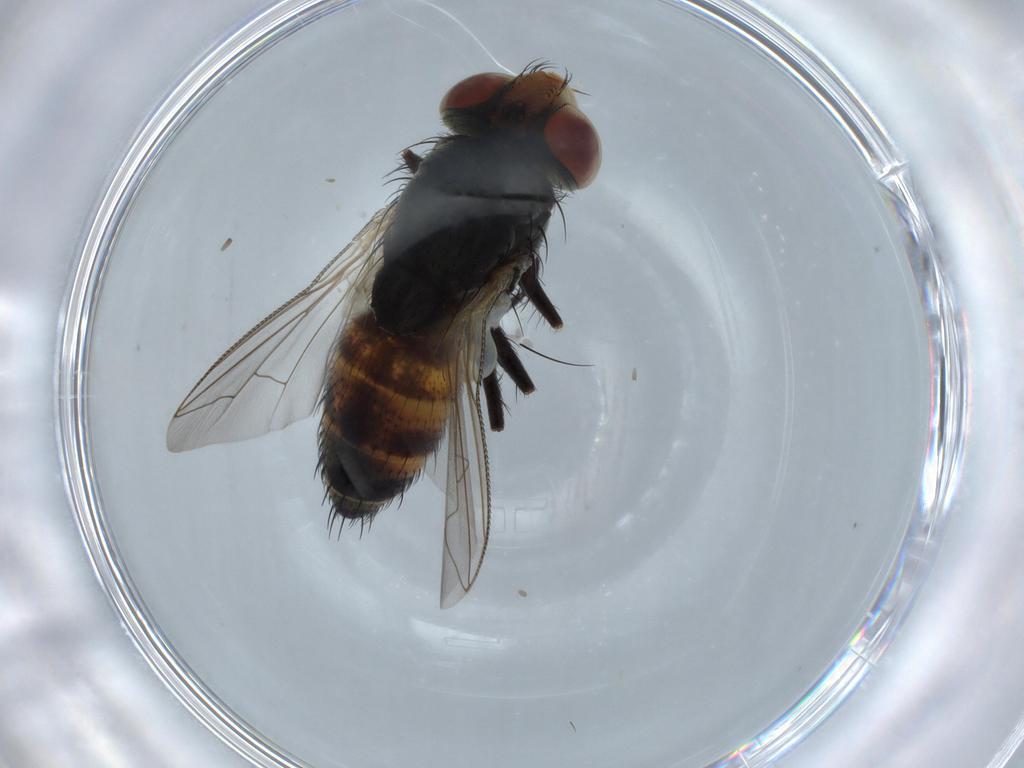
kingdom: Animalia
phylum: Arthropoda
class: Insecta
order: Diptera
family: Sarcophagidae
